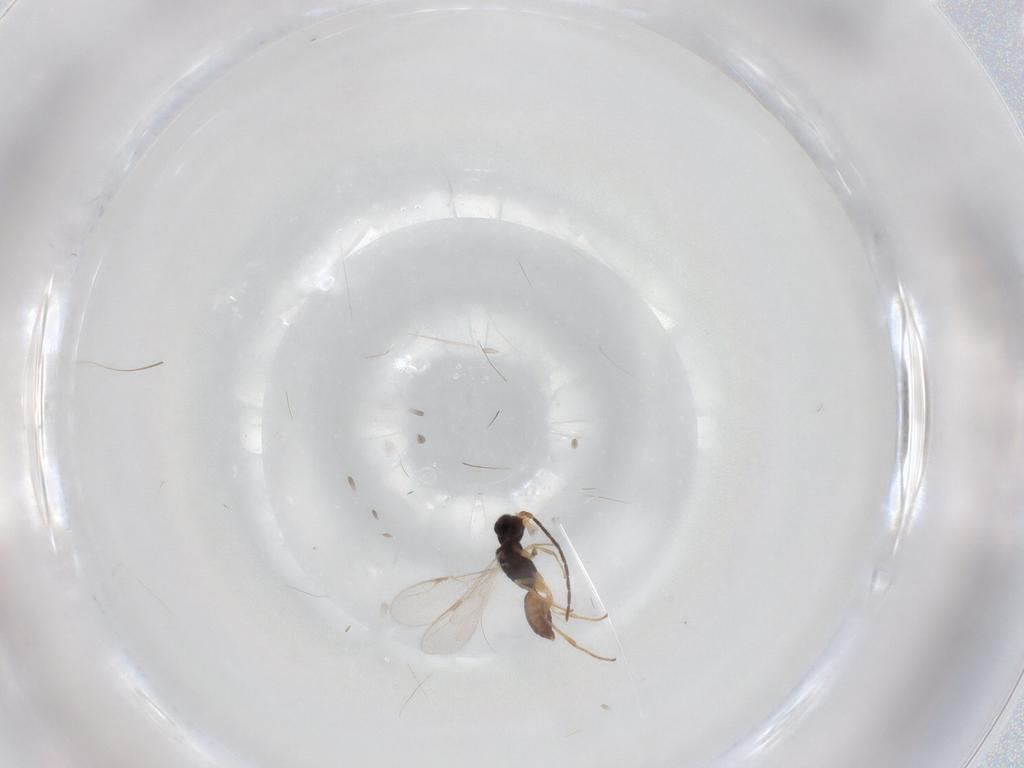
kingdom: Animalia
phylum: Arthropoda
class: Insecta
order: Hymenoptera
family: Dryinidae
